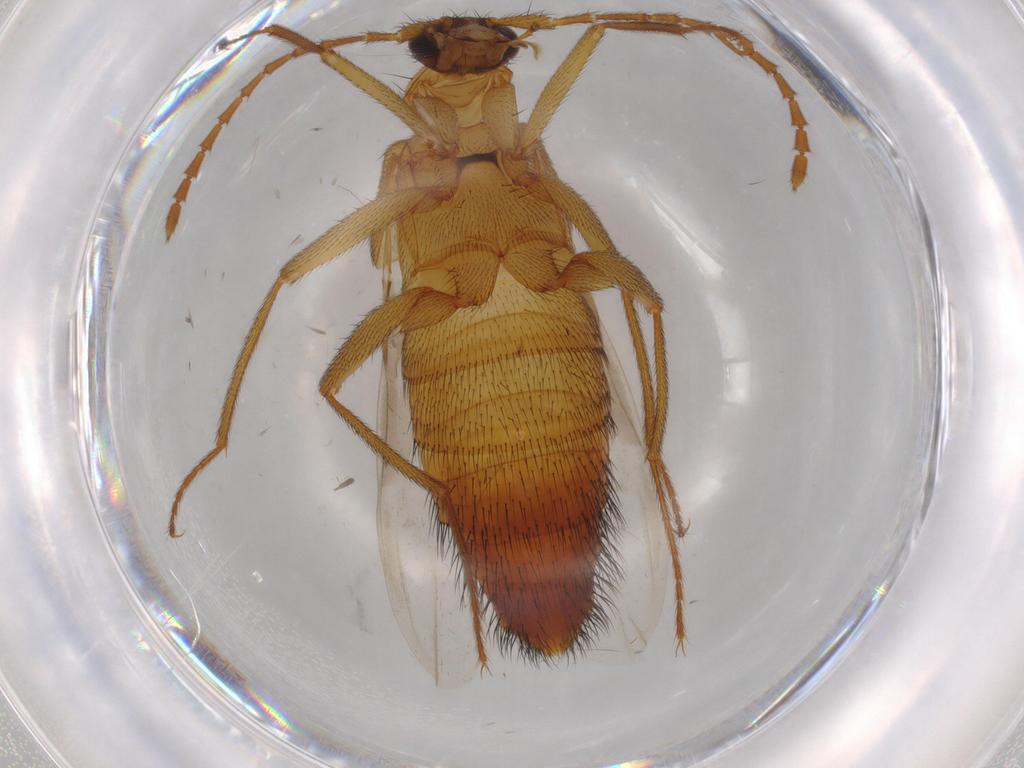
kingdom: Animalia
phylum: Arthropoda
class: Insecta
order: Coleoptera
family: Staphylinidae
